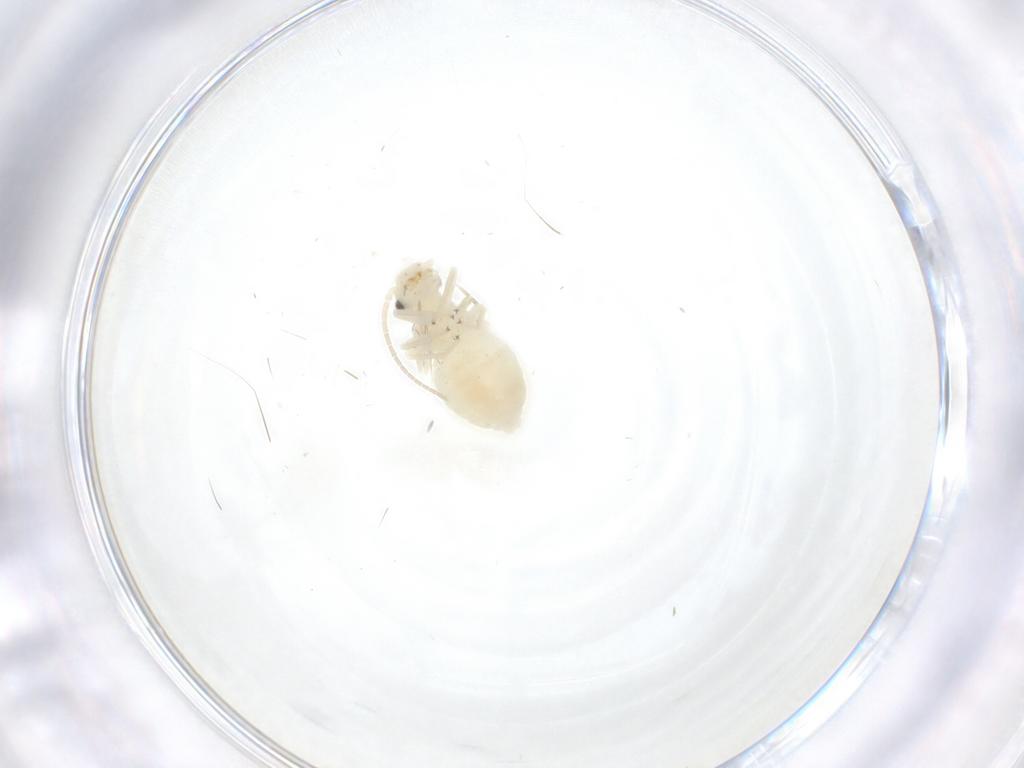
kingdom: Animalia
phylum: Arthropoda
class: Insecta
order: Psocodea
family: Caeciliusidae
